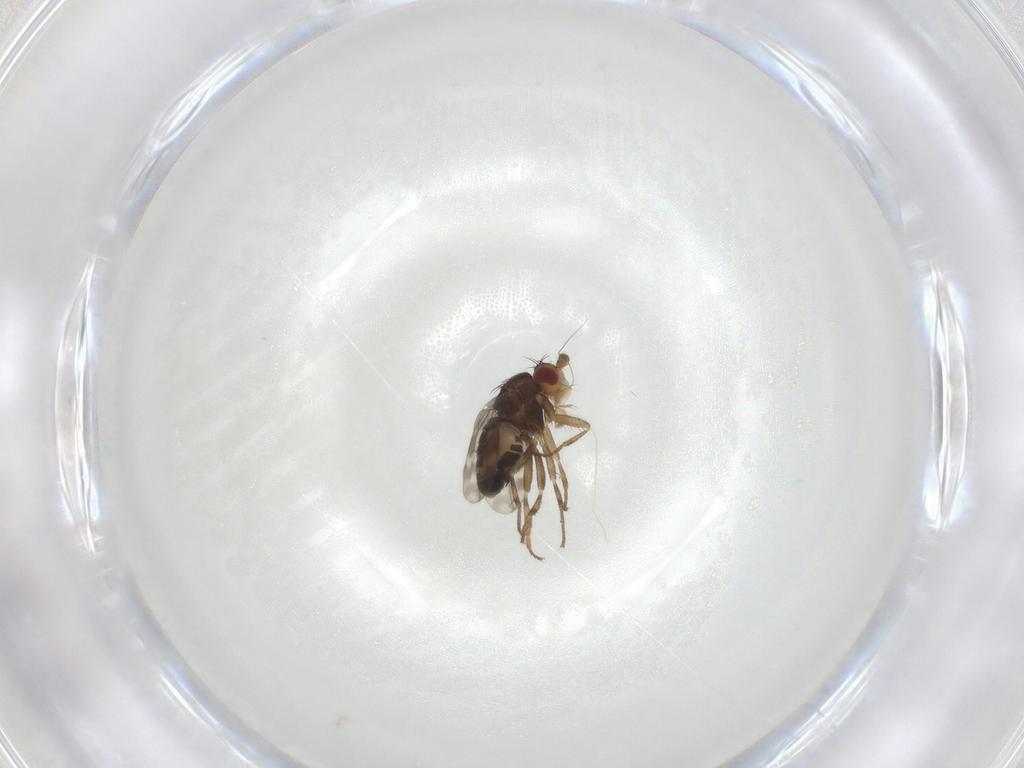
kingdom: Animalia
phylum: Arthropoda
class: Insecta
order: Diptera
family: Sphaeroceridae
